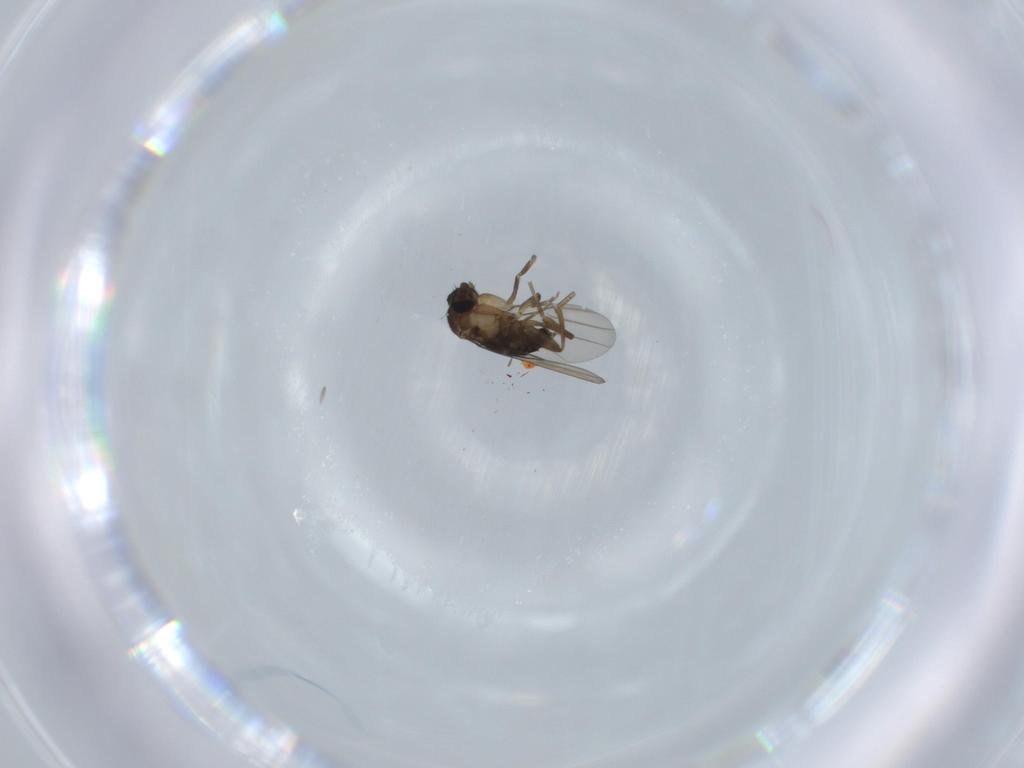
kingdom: Animalia
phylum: Arthropoda
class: Insecta
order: Diptera
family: Phoridae
